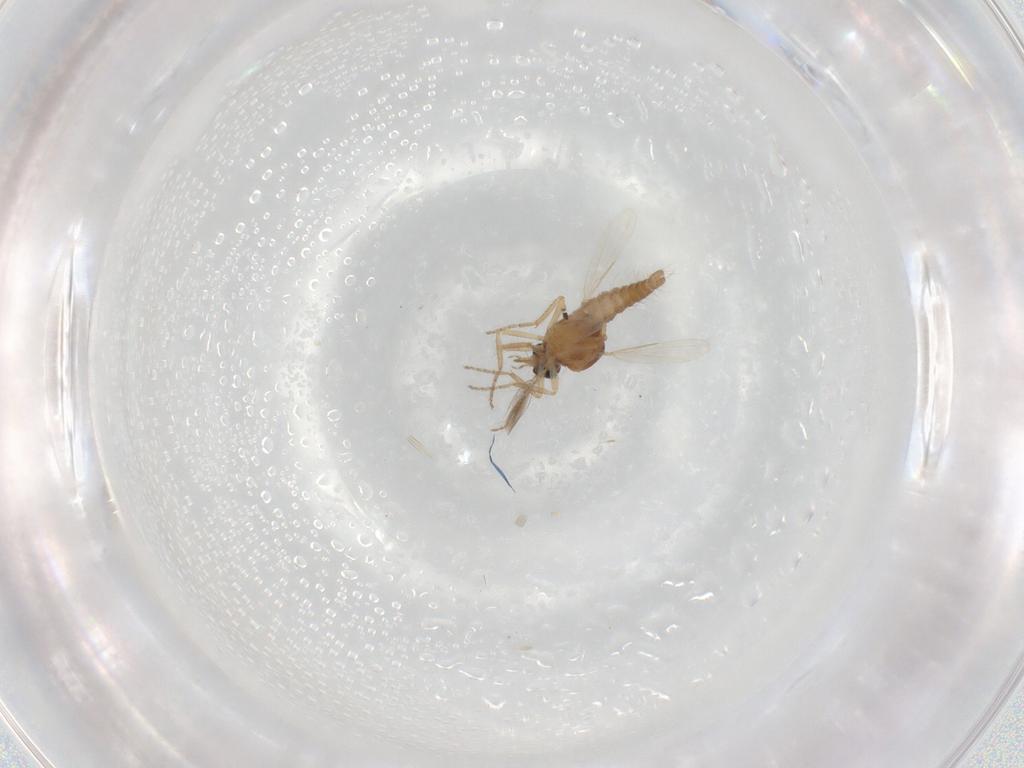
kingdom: Animalia
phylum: Arthropoda
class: Insecta
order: Diptera
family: Ceratopogonidae
